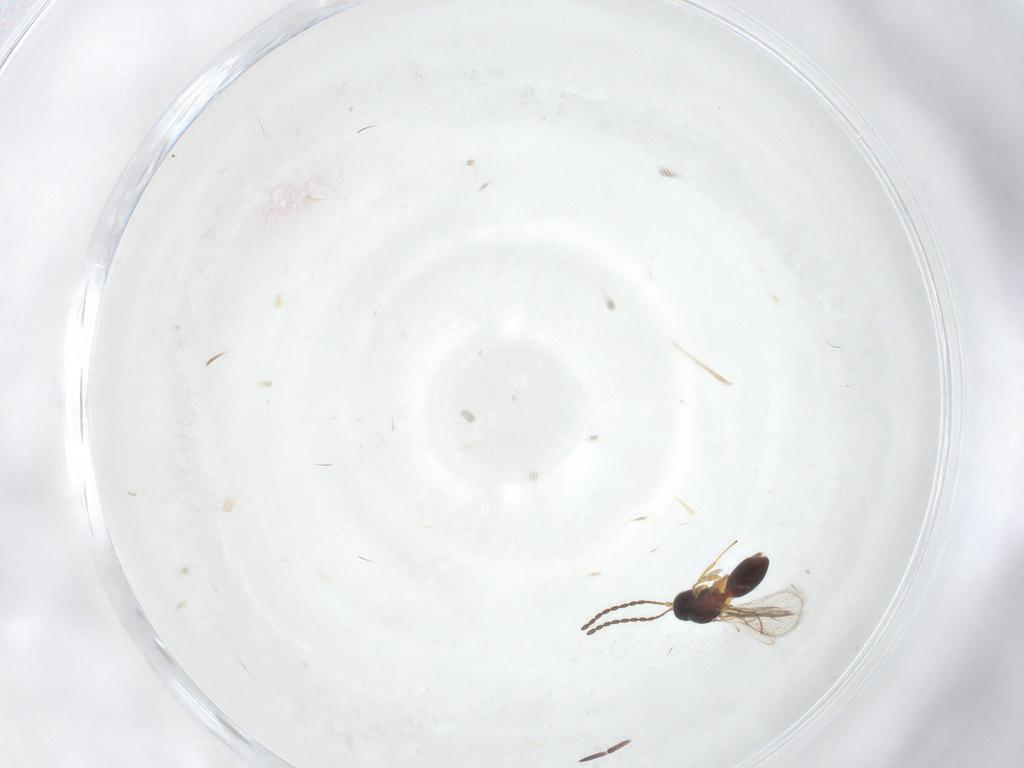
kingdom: Animalia
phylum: Arthropoda
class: Insecta
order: Hymenoptera
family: Figitidae
